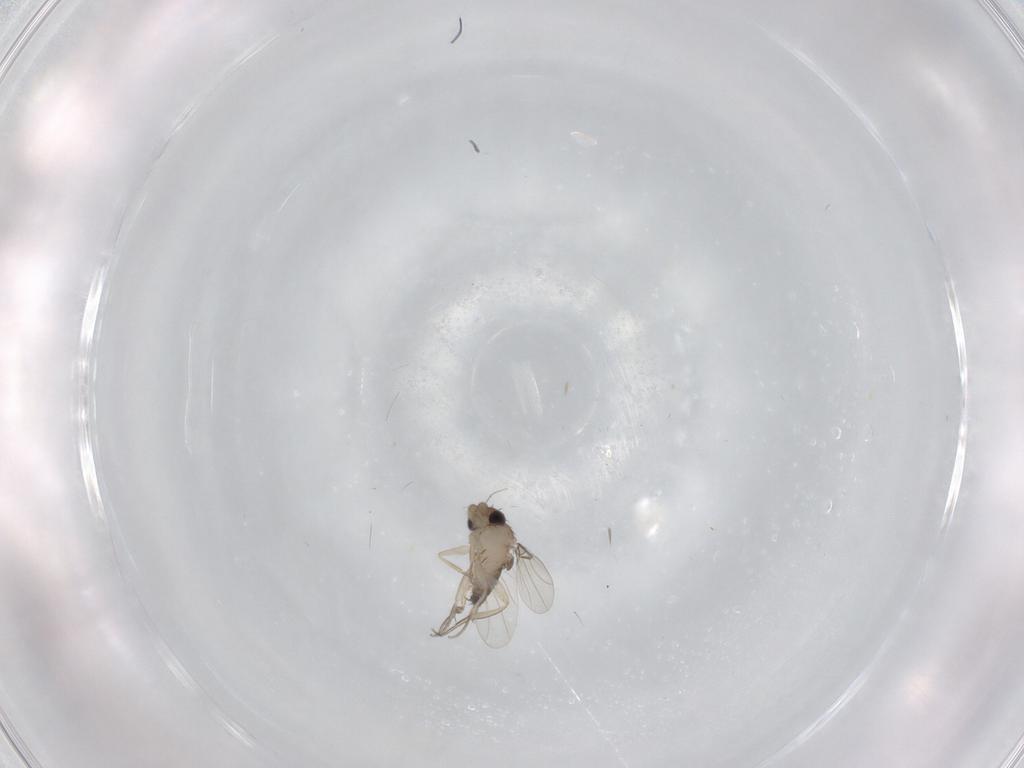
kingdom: Animalia
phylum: Arthropoda
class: Insecta
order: Diptera
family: Phoridae
